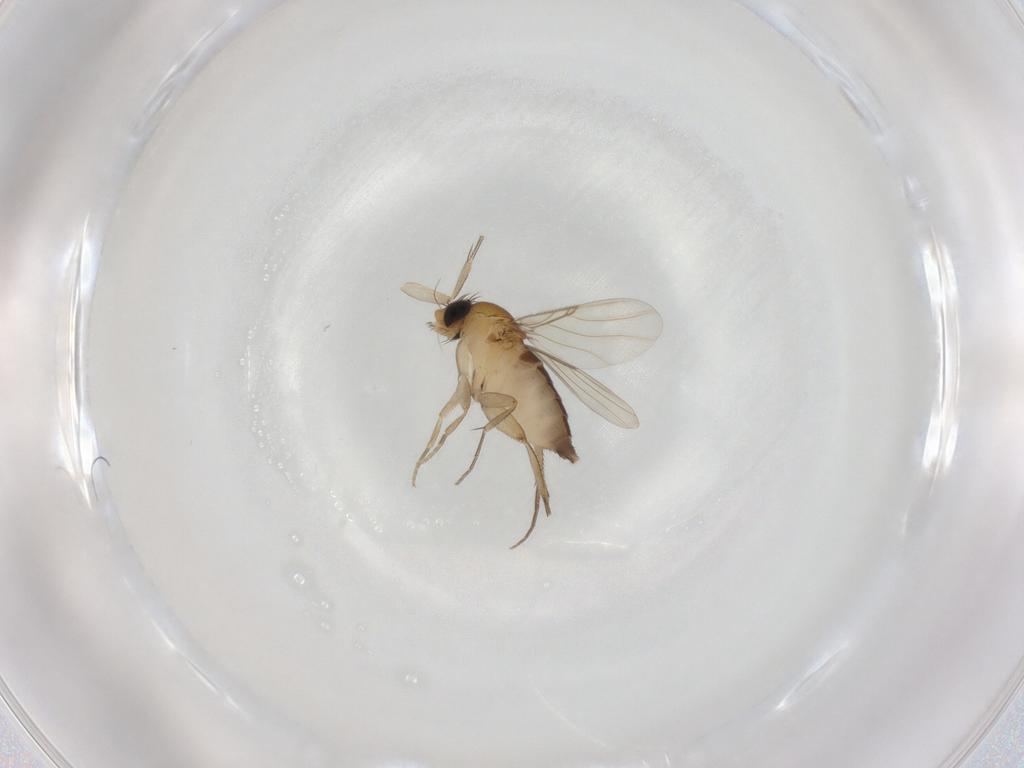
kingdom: Animalia
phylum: Arthropoda
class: Insecta
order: Diptera
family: Phoridae
